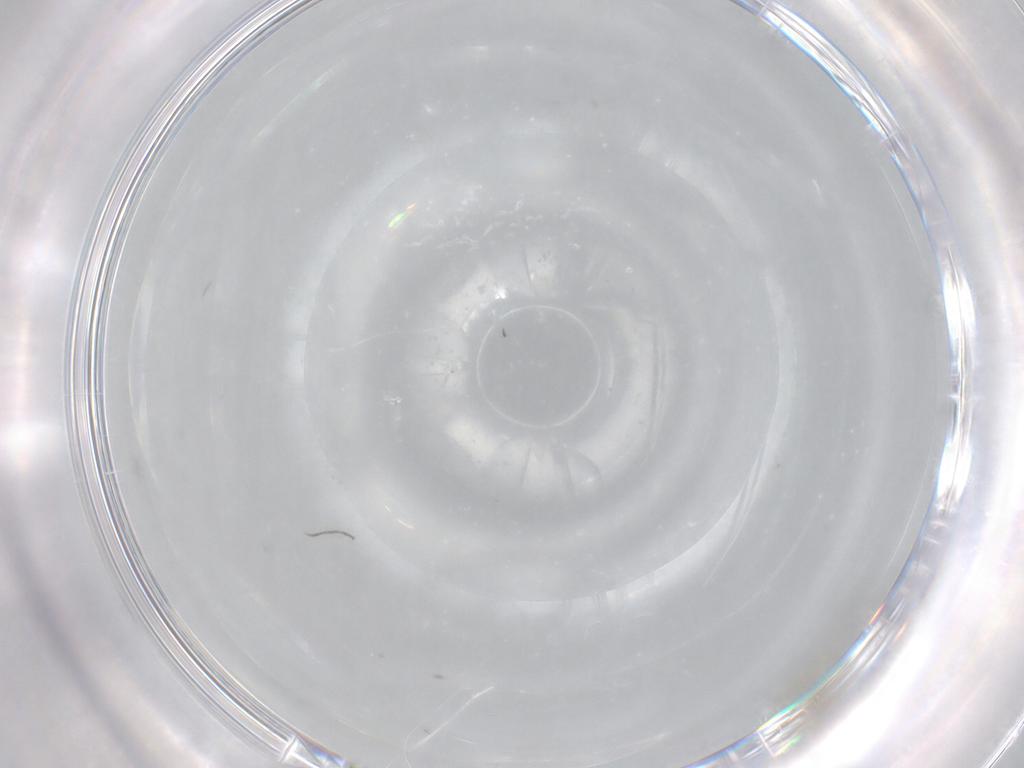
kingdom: Animalia
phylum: Arthropoda
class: Insecta
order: Diptera
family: Cecidomyiidae
